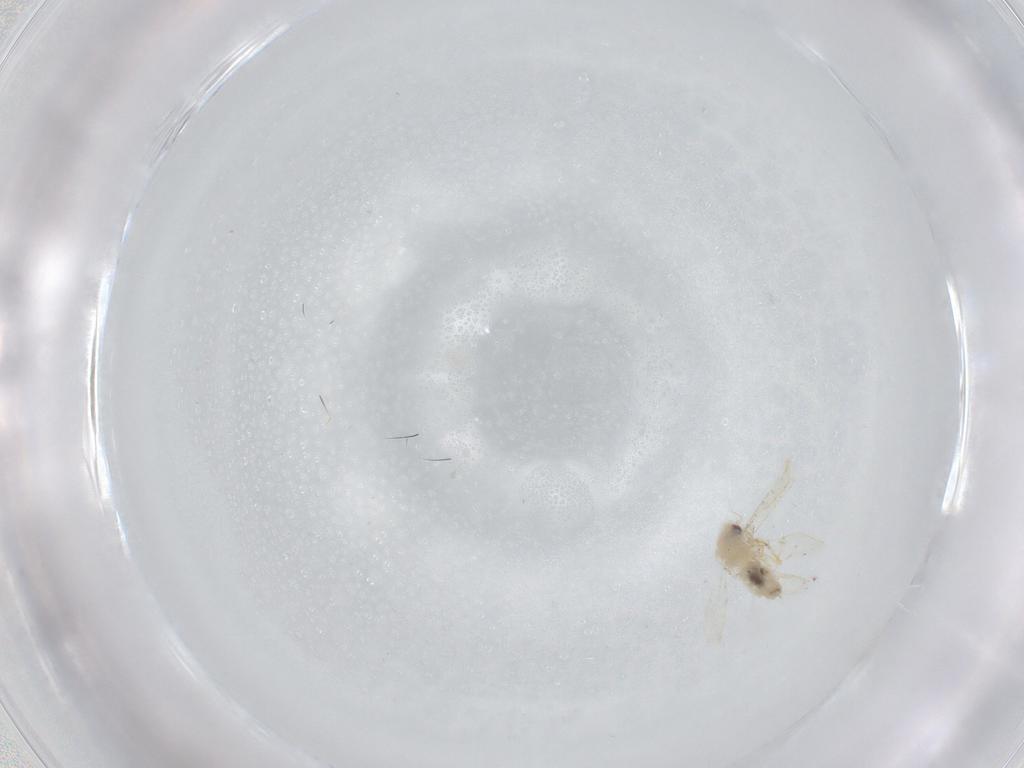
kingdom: Animalia
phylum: Arthropoda
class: Insecta
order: Hemiptera
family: Aleyrodidae
